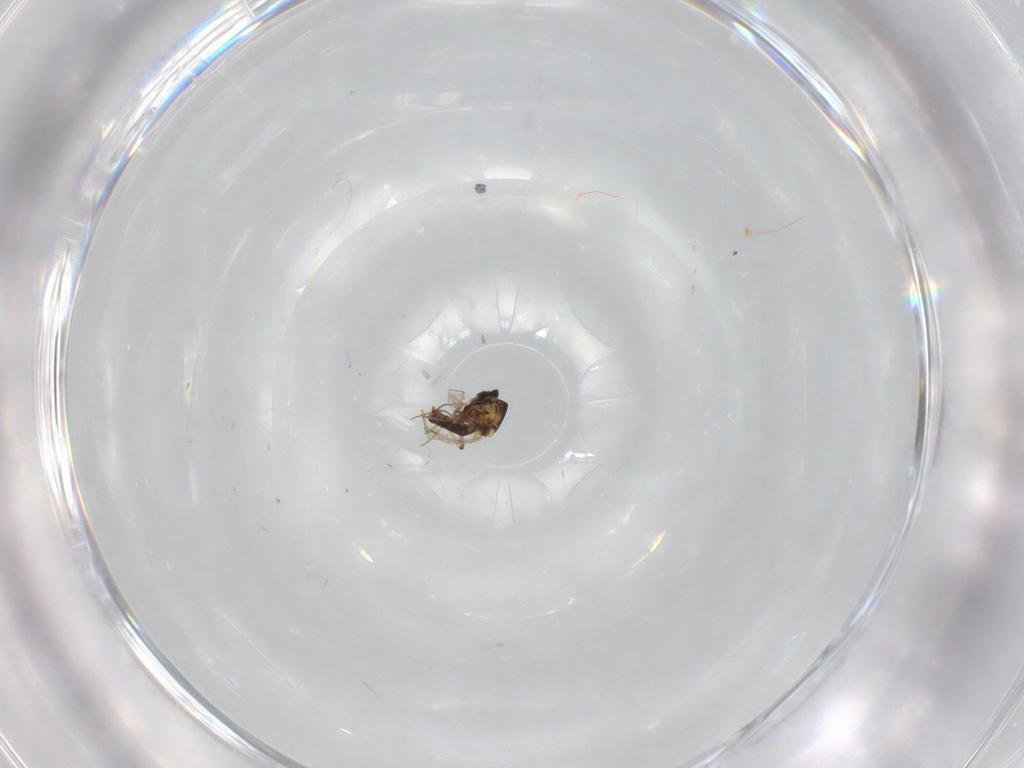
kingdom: Animalia
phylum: Arthropoda
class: Insecta
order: Diptera
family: Ceratopogonidae
